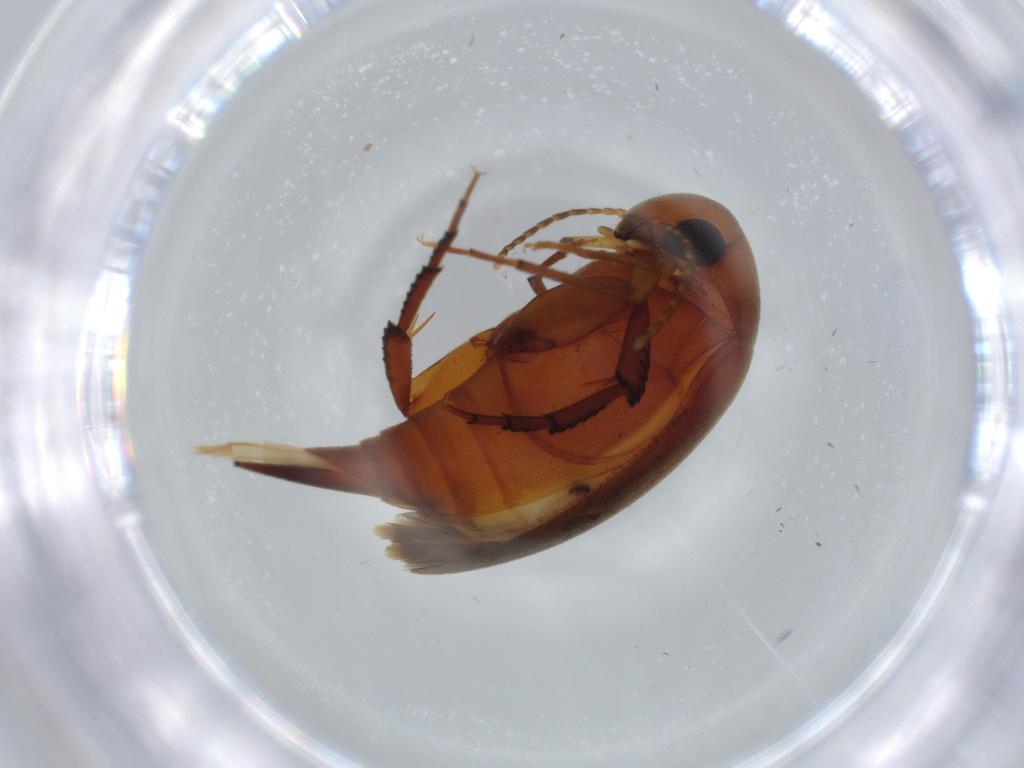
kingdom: Animalia
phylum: Arthropoda
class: Insecta
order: Coleoptera
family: Mordellidae
